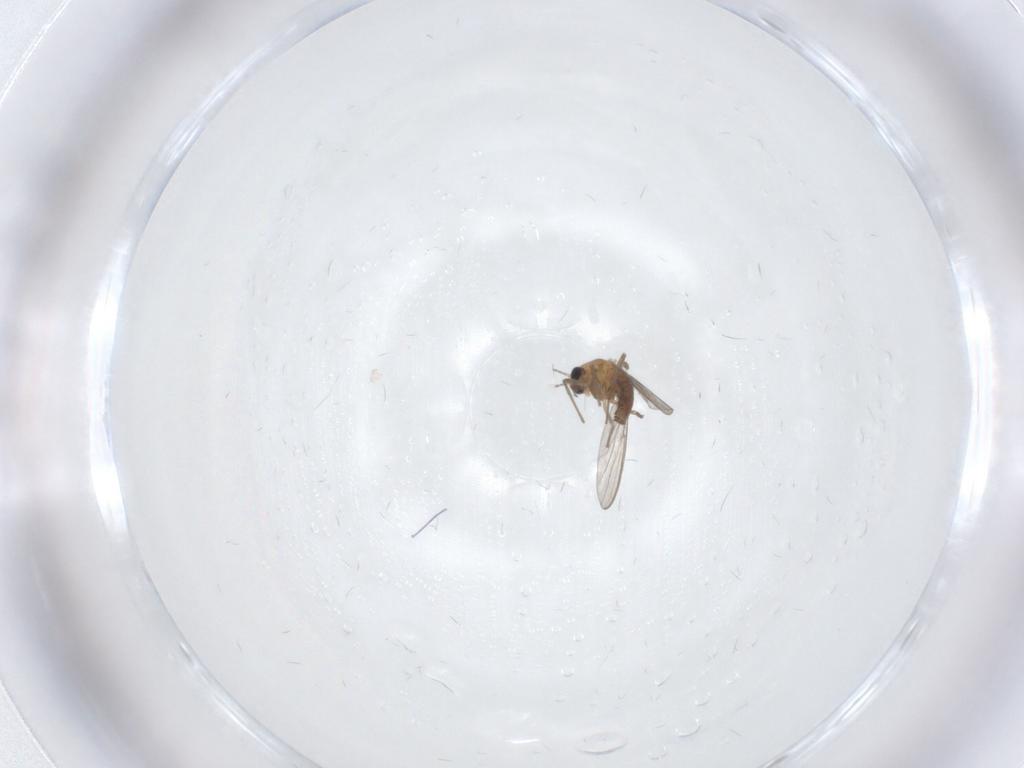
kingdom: Animalia
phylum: Arthropoda
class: Insecta
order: Diptera
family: Chironomidae
